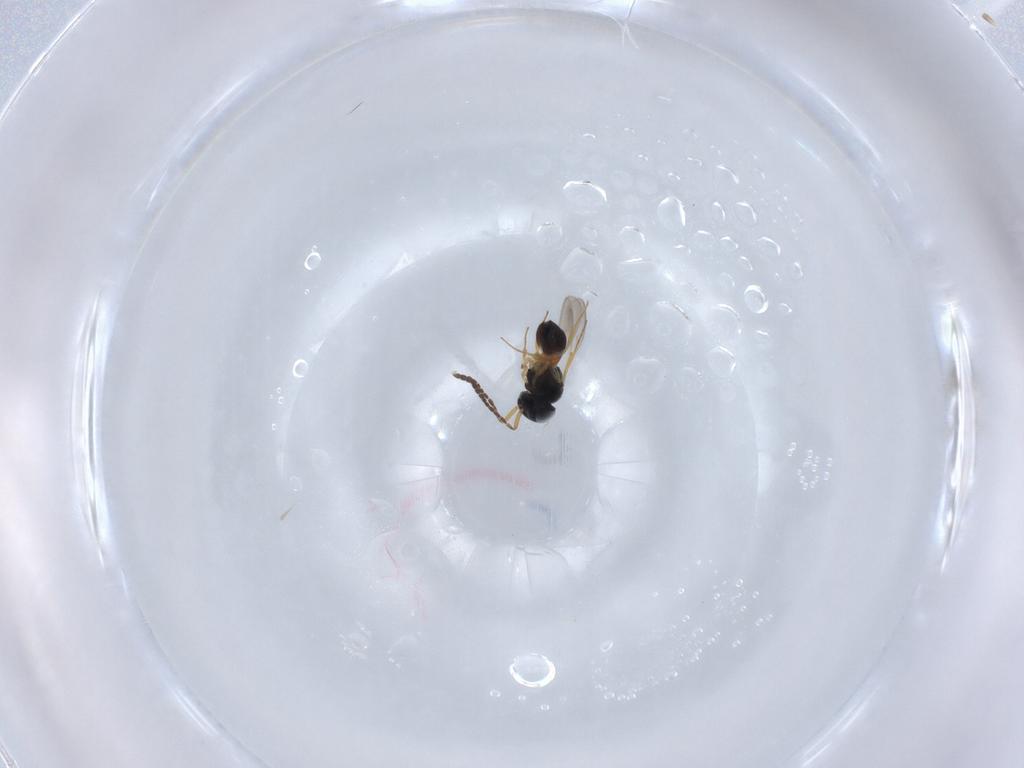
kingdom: Animalia
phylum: Arthropoda
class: Insecta
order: Hymenoptera
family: Scelionidae
